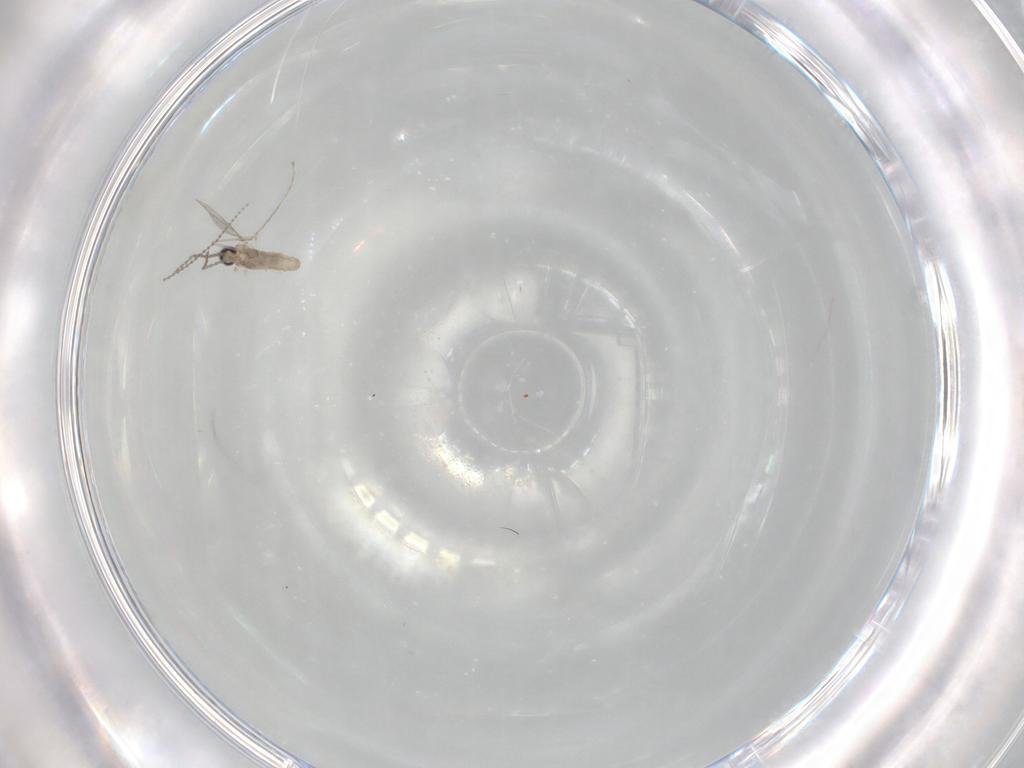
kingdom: Animalia
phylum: Arthropoda
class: Insecta
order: Diptera
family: Cecidomyiidae
